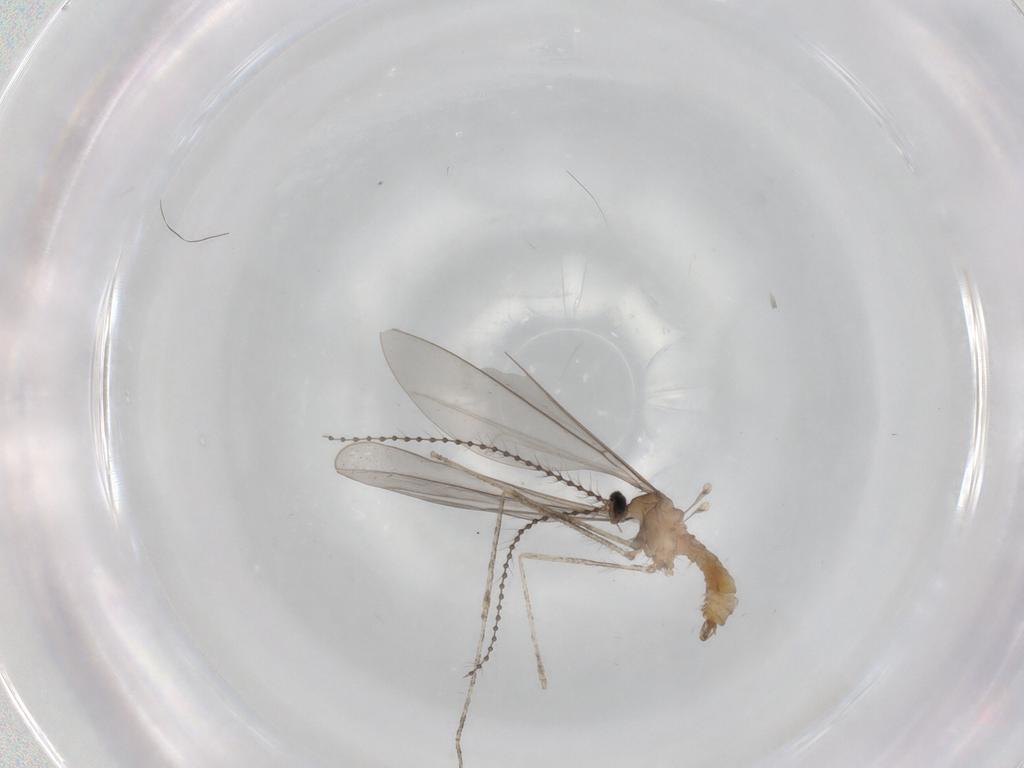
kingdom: Animalia
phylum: Arthropoda
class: Insecta
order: Diptera
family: Cecidomyiidae
